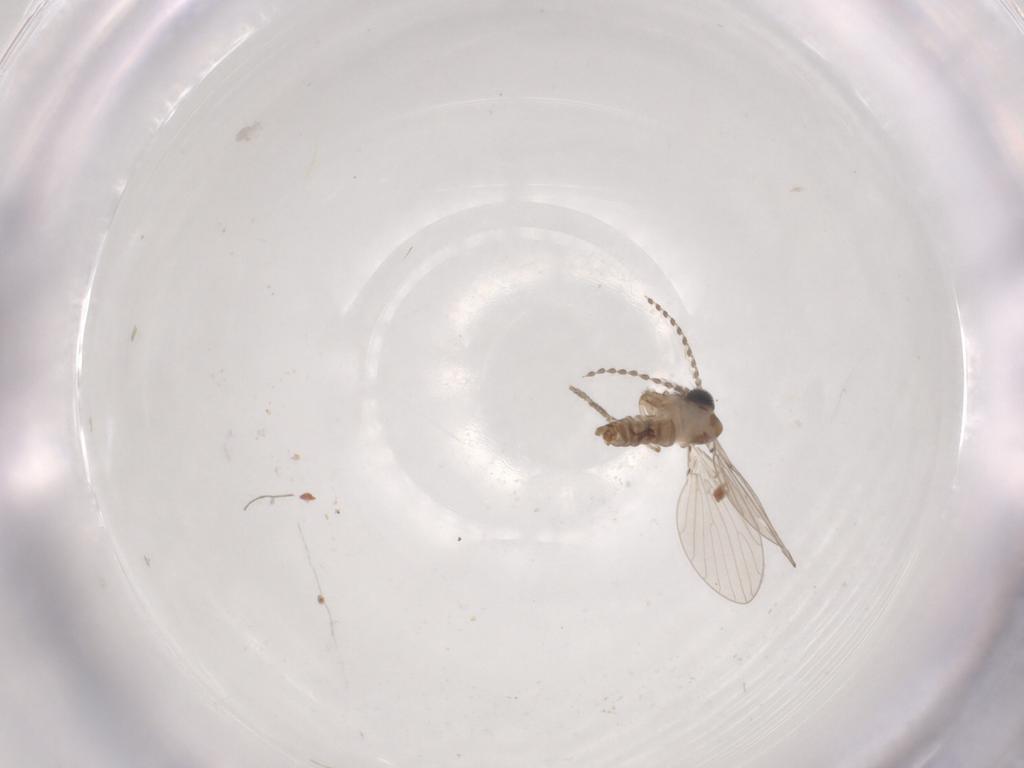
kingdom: Animalia
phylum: Arthropoda
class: Insecta
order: Diptera
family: Psychodidae
